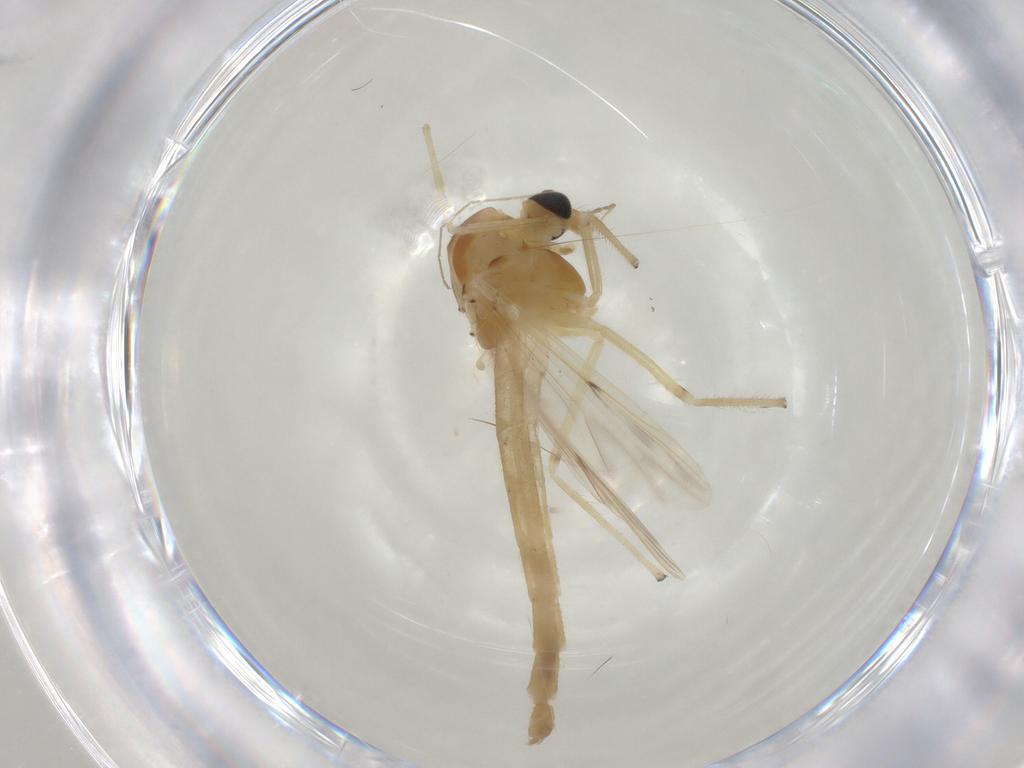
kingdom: Animalia
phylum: Arthropoda
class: Insecta
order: Diptera
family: Chironomidae
